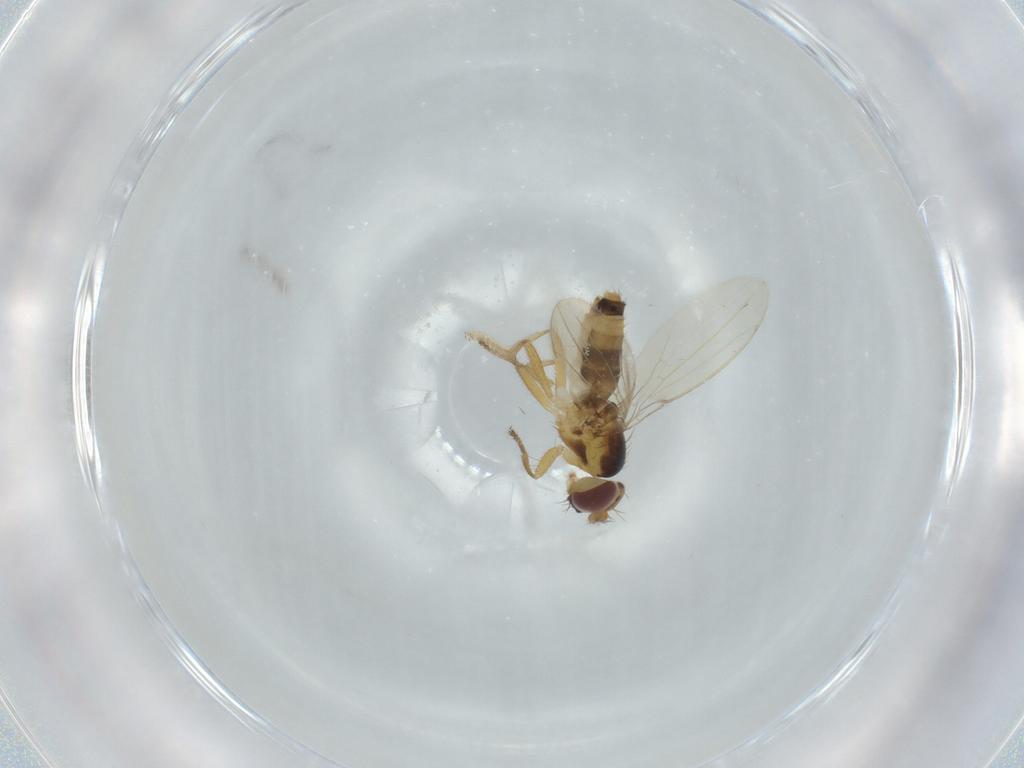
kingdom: Animalia
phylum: Arthropoda
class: Insecta
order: Diptera
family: Periscelididae
